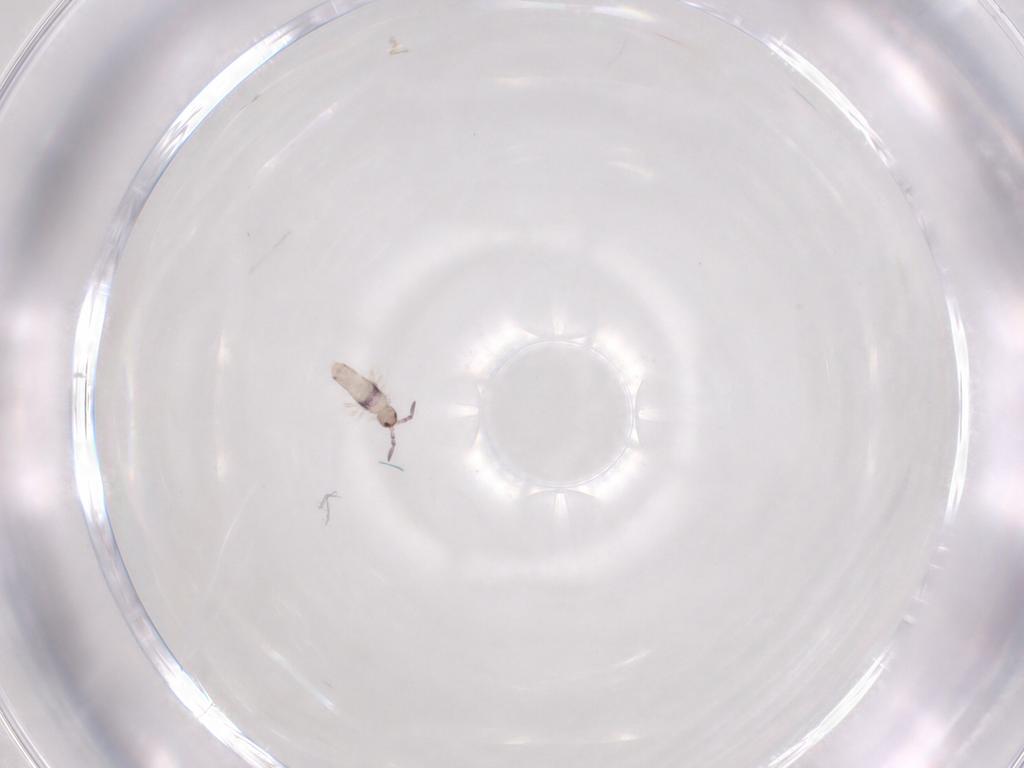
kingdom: Animalia
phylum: Arthropoda
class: Collembola
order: Entomobryomorpha
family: Entomobryidae
